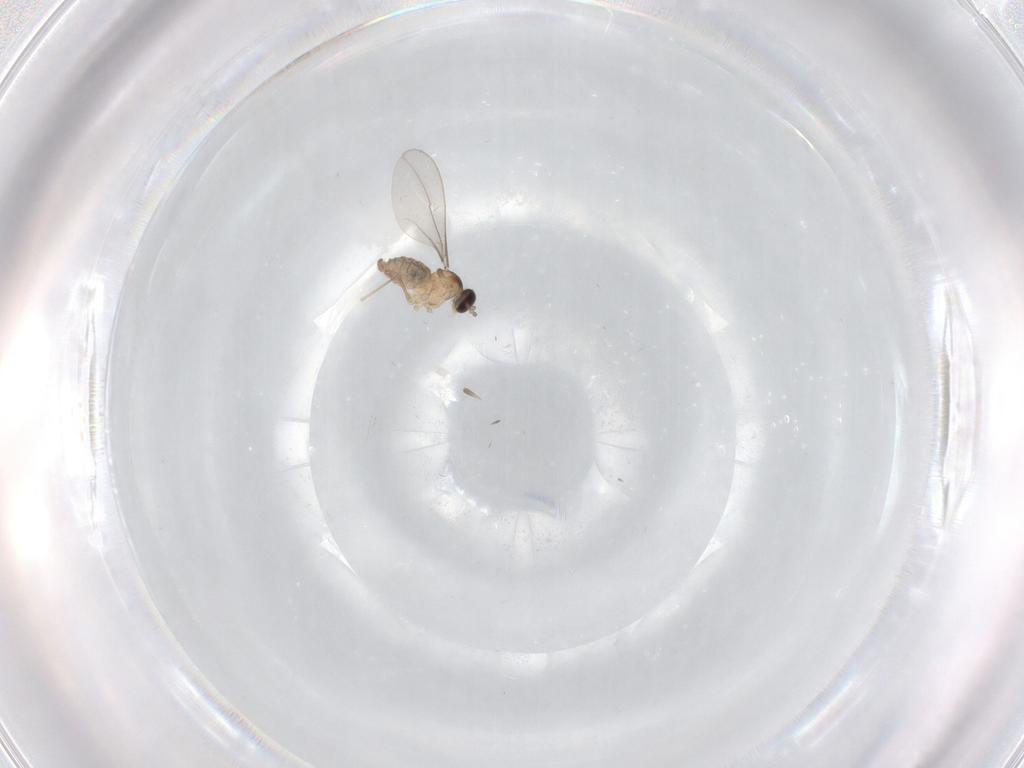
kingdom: Animalia
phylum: Arthropoda
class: Insecta
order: Diptera
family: Cecidomyiidae
